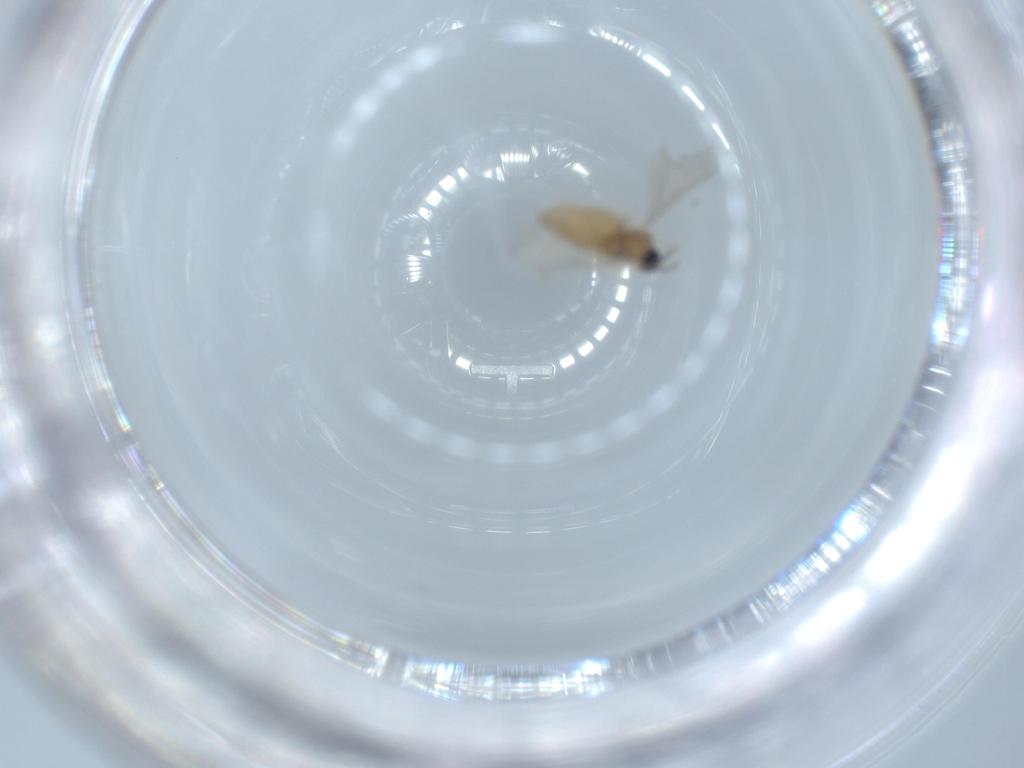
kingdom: Animalia
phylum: Arthropoda
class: Insecta
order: Diptera
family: Cecidomyiidae
